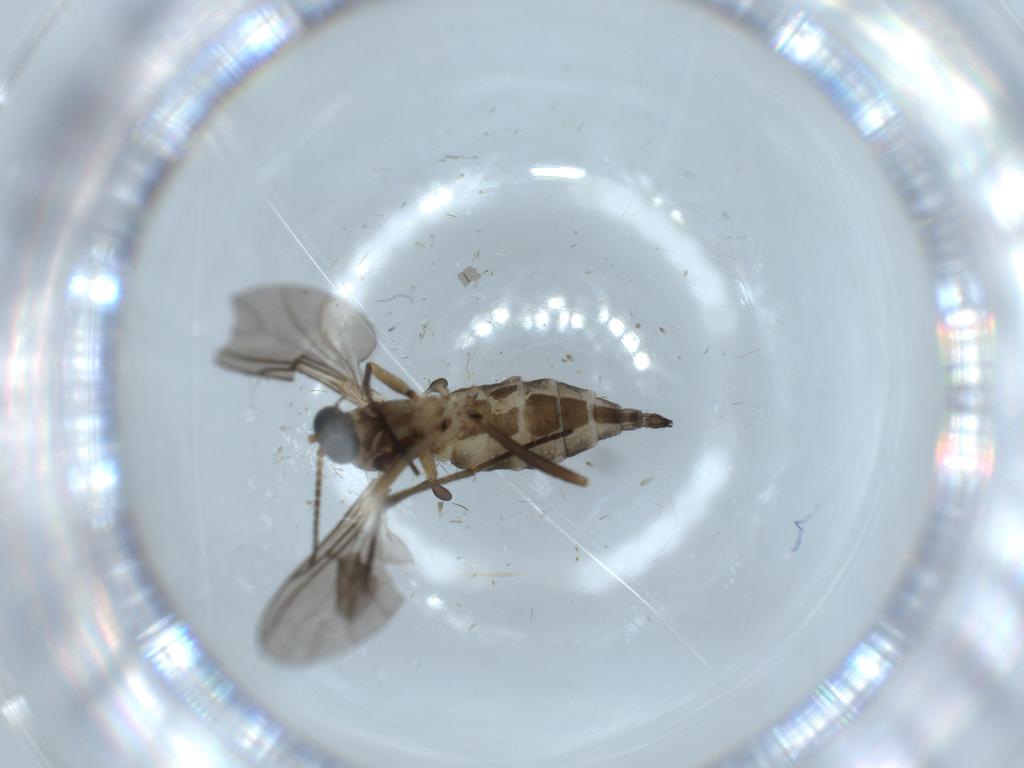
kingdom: Animalia
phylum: Arthropoda
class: Insecta
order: Diptera
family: Sciaridae
